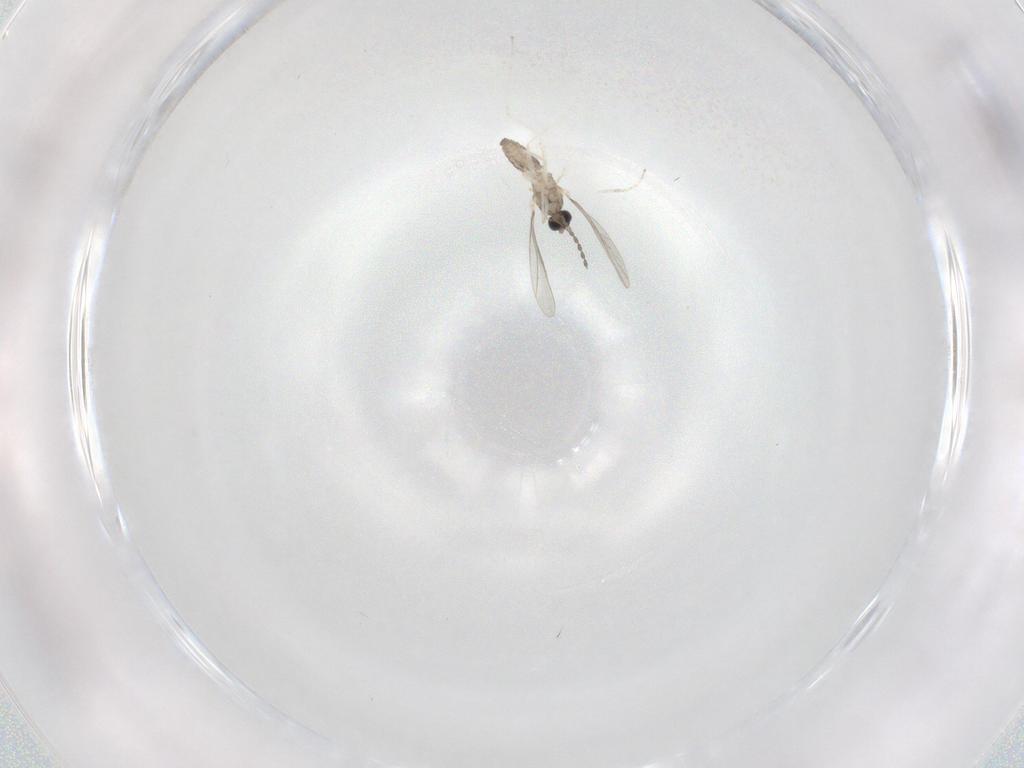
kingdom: Animalia
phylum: Arthropoda
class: Insecta
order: Diptera
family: Cecidomyiidae
